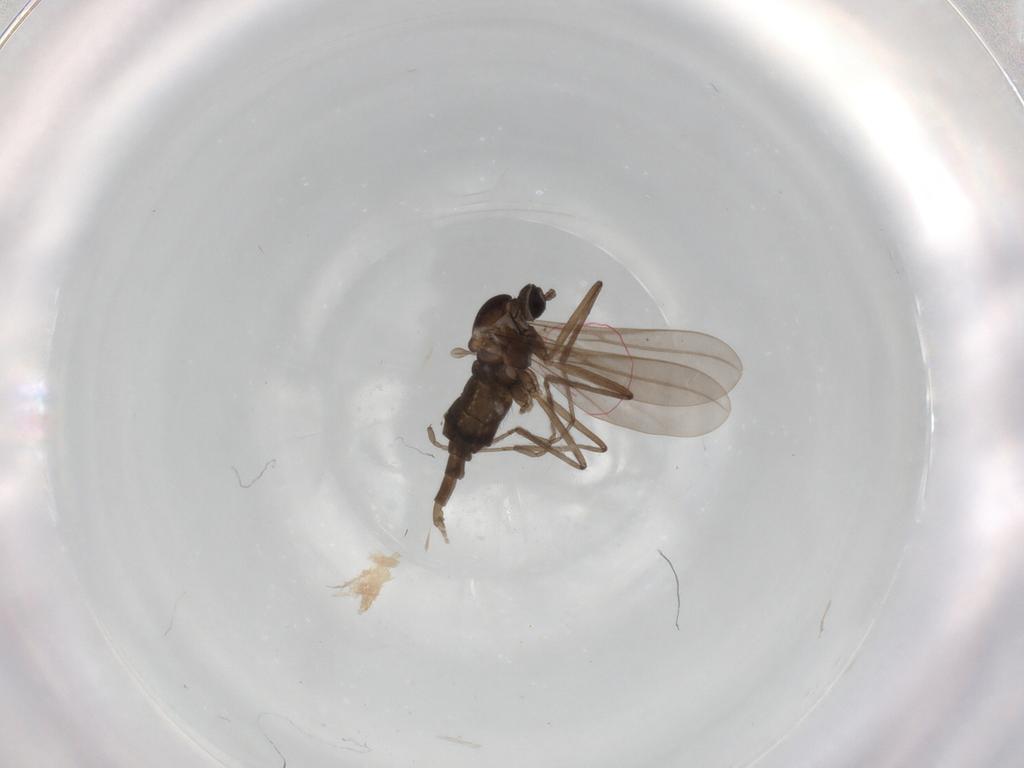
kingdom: Animalia
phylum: Arthropoda
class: Insecta
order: Diptera
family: Cecidomyiidae
